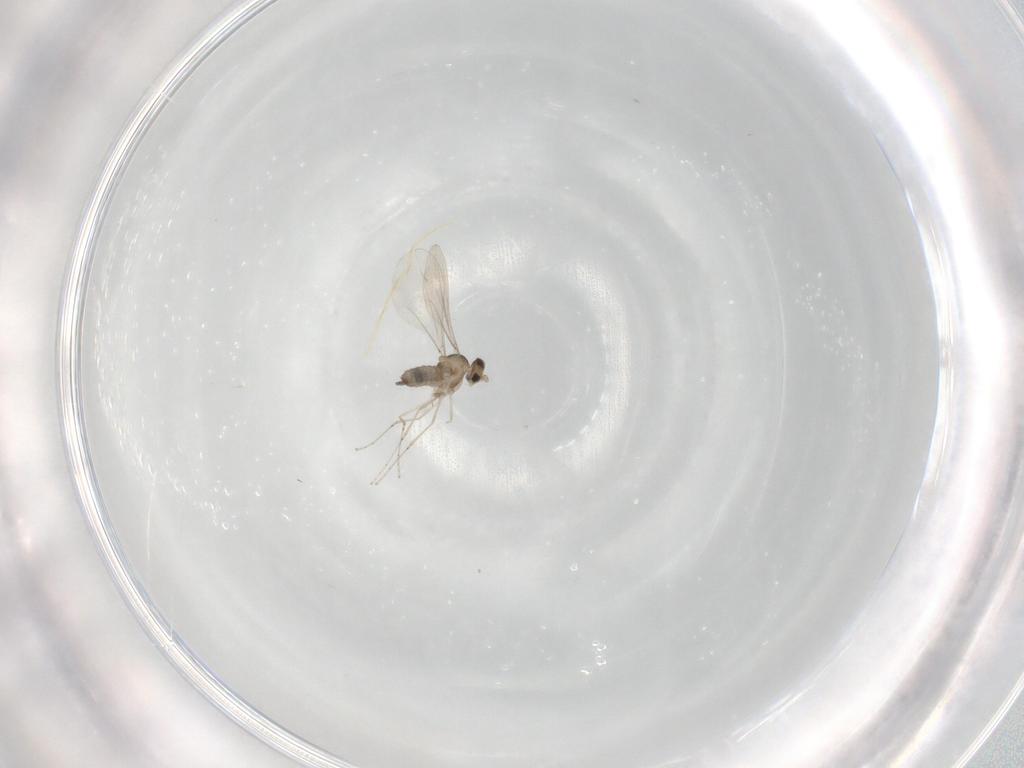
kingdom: Animalia
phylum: Arthropoda
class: Insecta
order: Diptera
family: Cecidomyiidae
